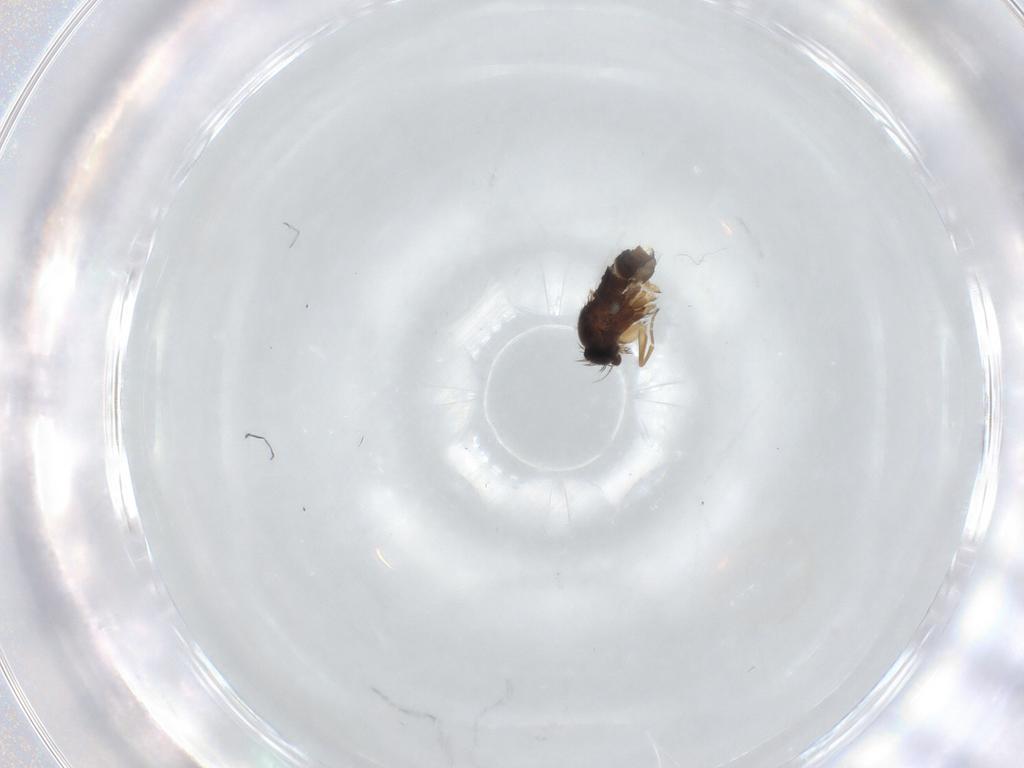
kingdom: Animalia
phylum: Arthropoda
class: Insecta
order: Diptera
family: Phoridae
